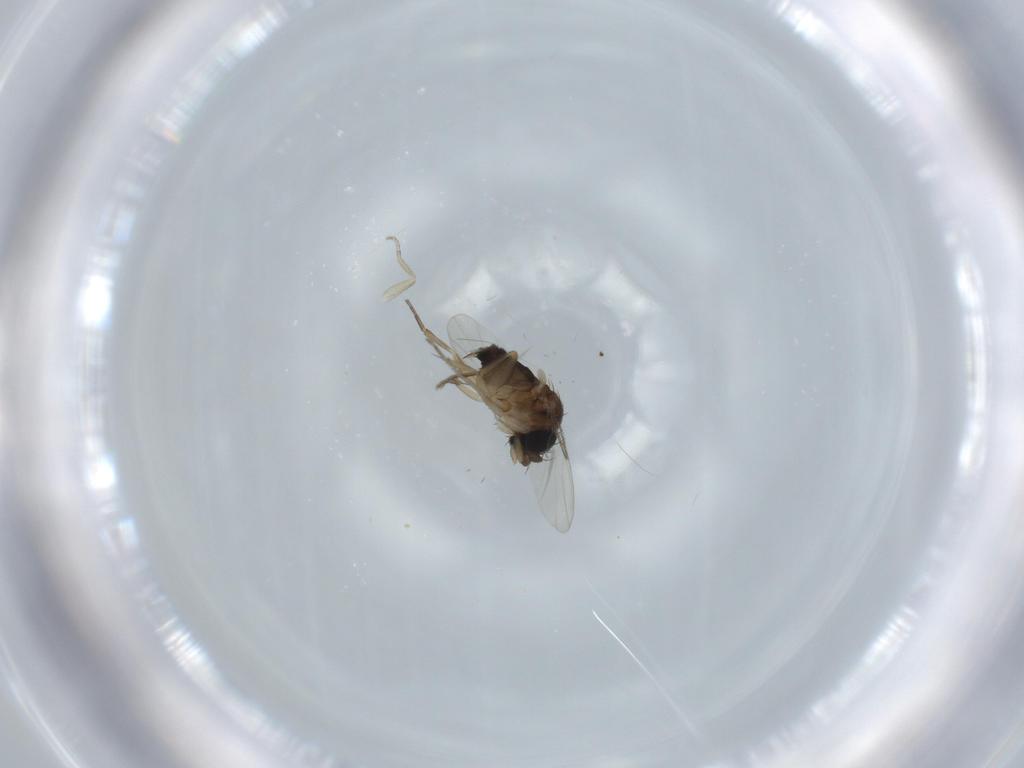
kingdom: Animalia
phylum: Arthropoda
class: Insecta
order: Diptera
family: Phoridae
